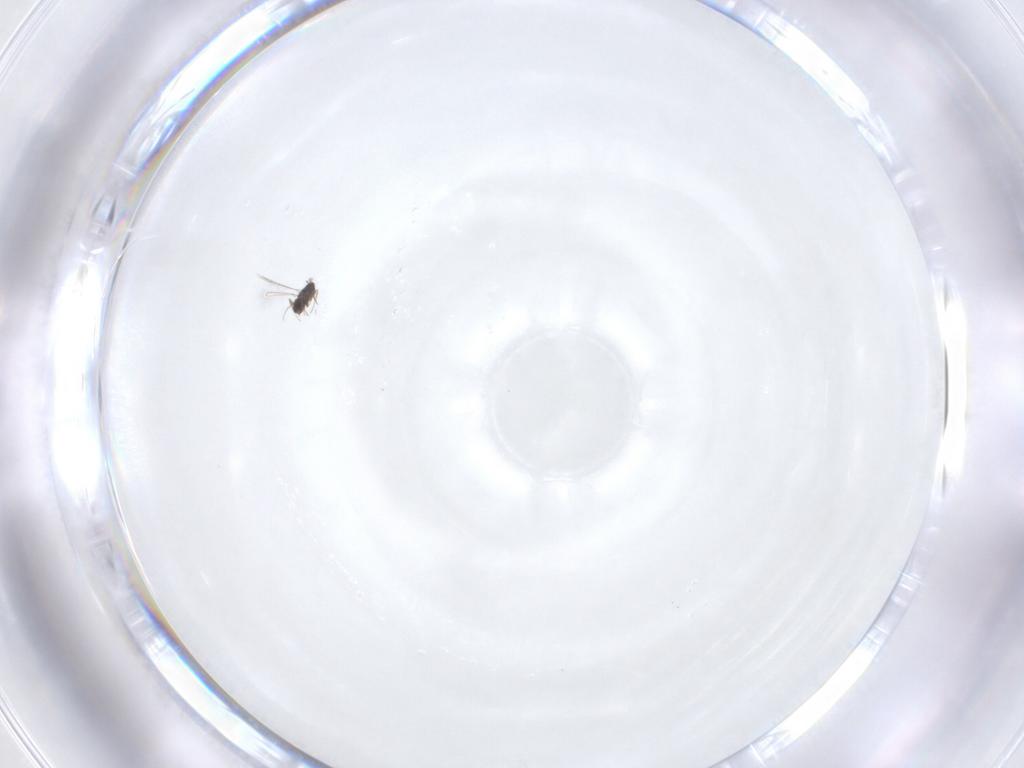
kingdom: Animalia
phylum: Arthropoda
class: Insecta
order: Hymenoptera
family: Mymaridae
